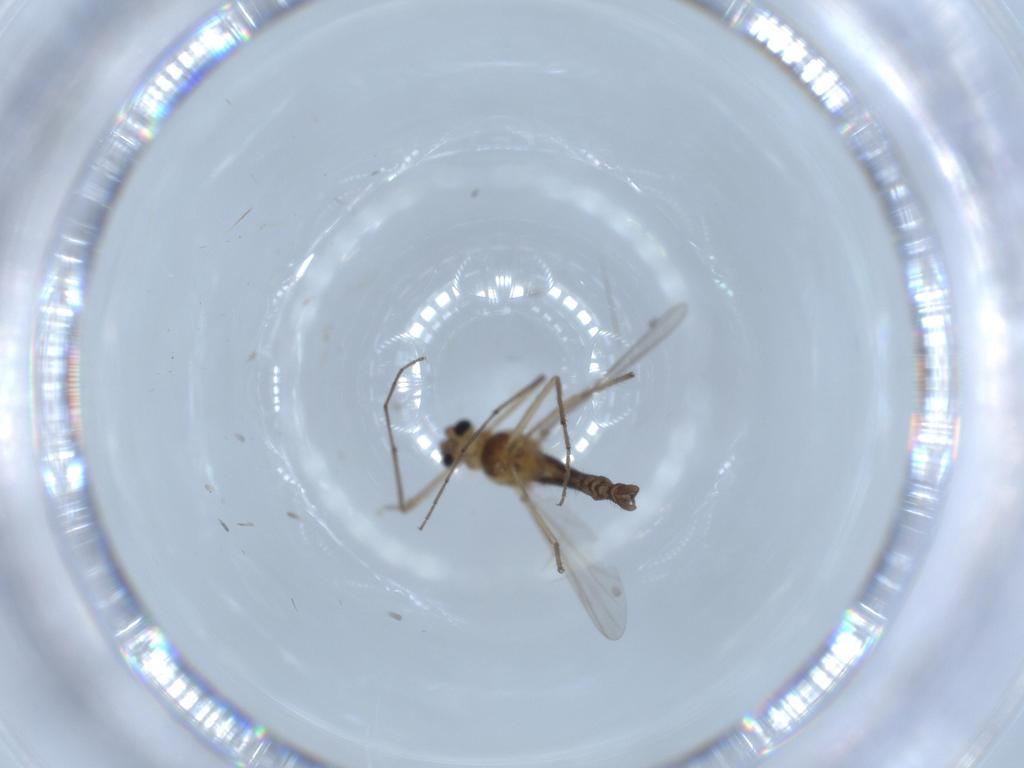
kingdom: Animalia
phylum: Arthropoda
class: Insecta
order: Diptera
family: Chironomidae
